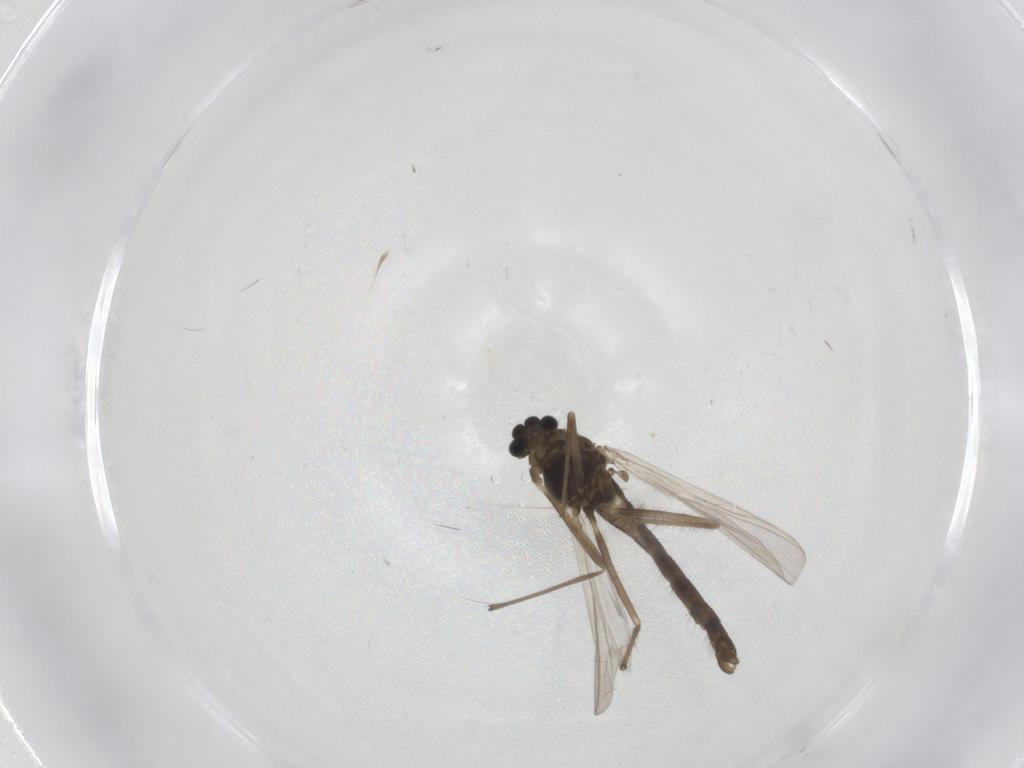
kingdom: Animalia
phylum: Arthropoda
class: Insecta
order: Diptera
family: Chironomidae
